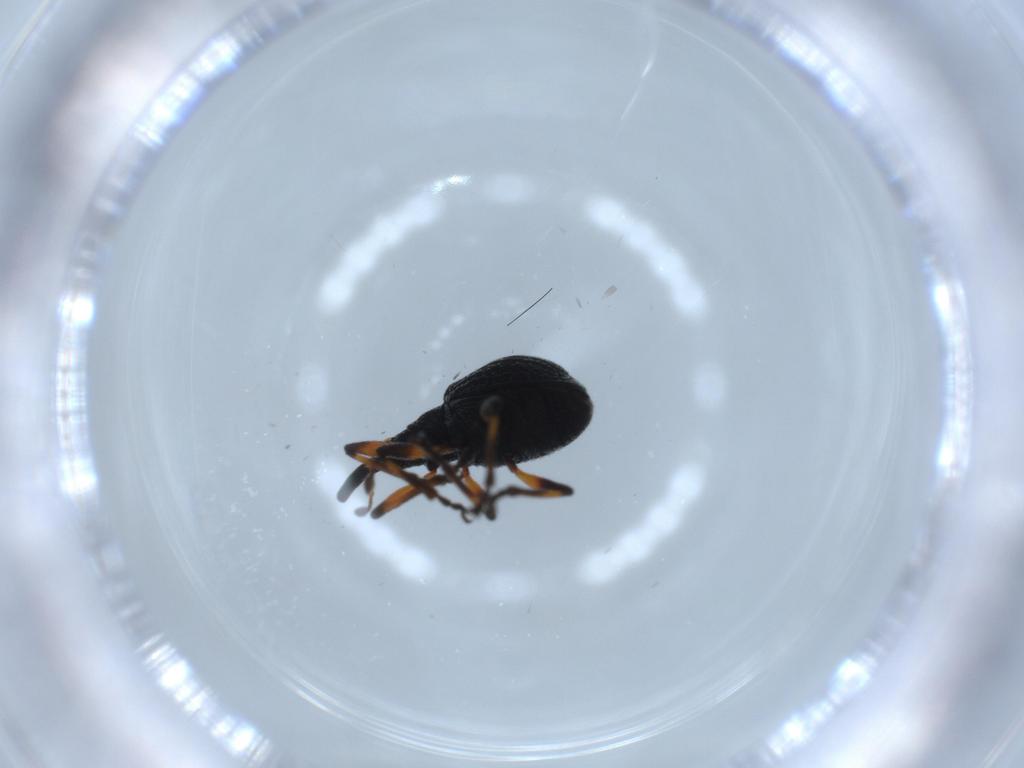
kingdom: Animalia
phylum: Arthropoda
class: Insecta
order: Coleoptera
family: Brentidae
